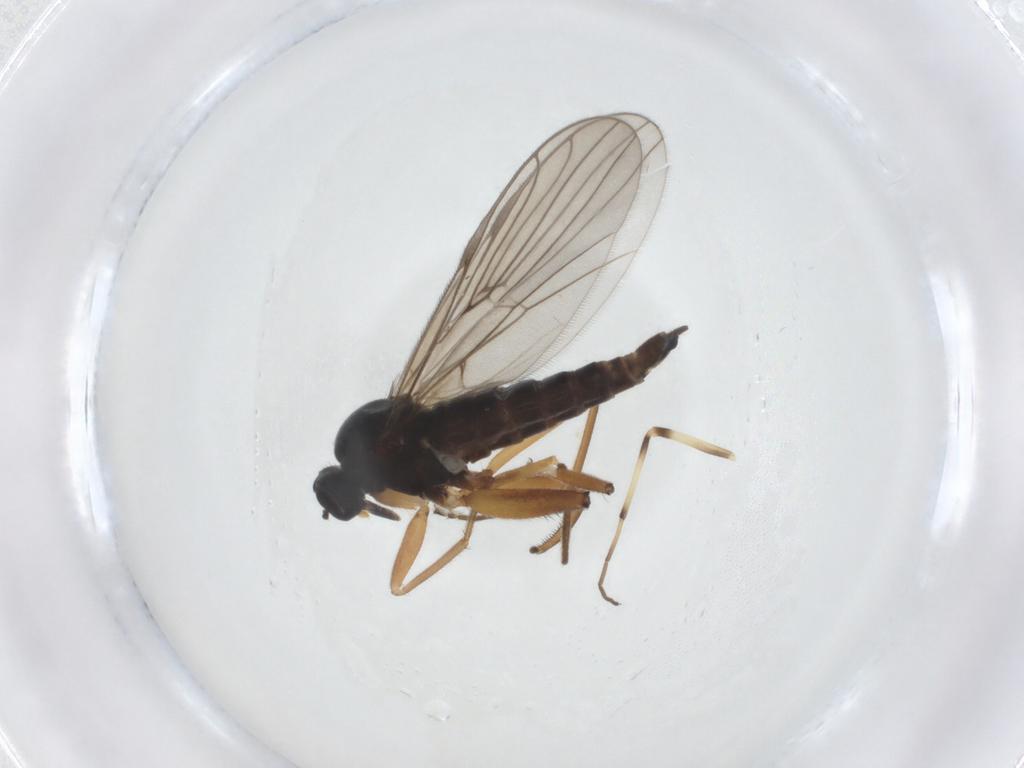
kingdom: Animalia
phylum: Arthropoda
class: Insecta
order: Diptera
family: Hybotidae
